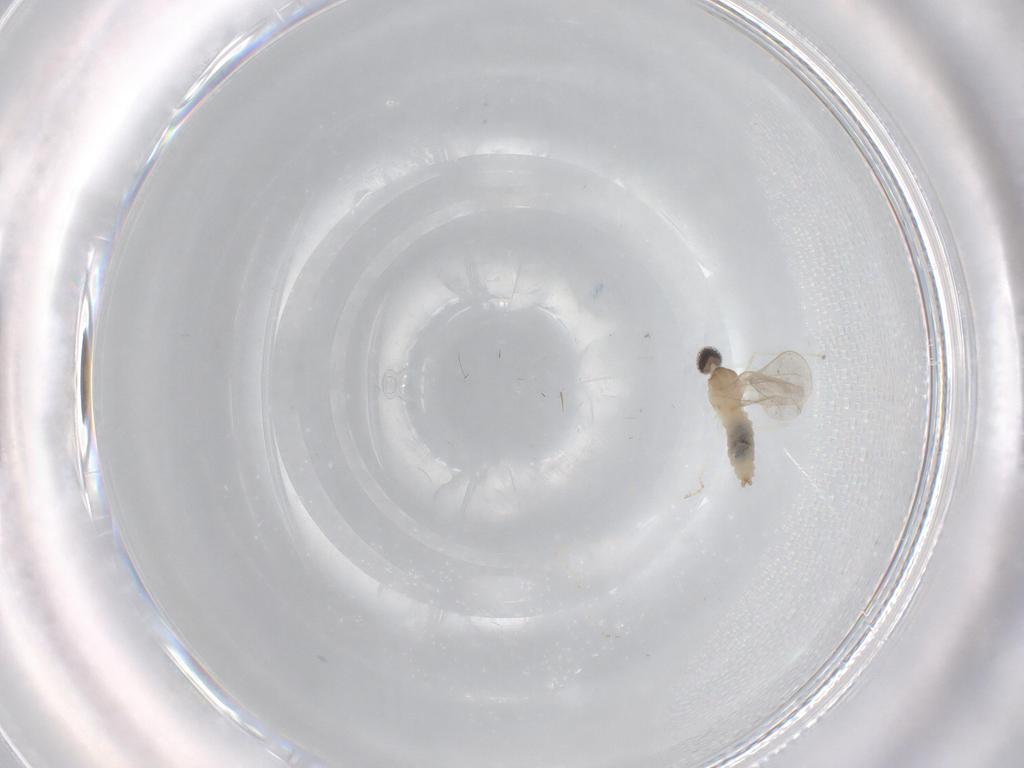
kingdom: Animalia
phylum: Arthropoda
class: Insecta
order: Diptera
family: Cecidomyiidae
